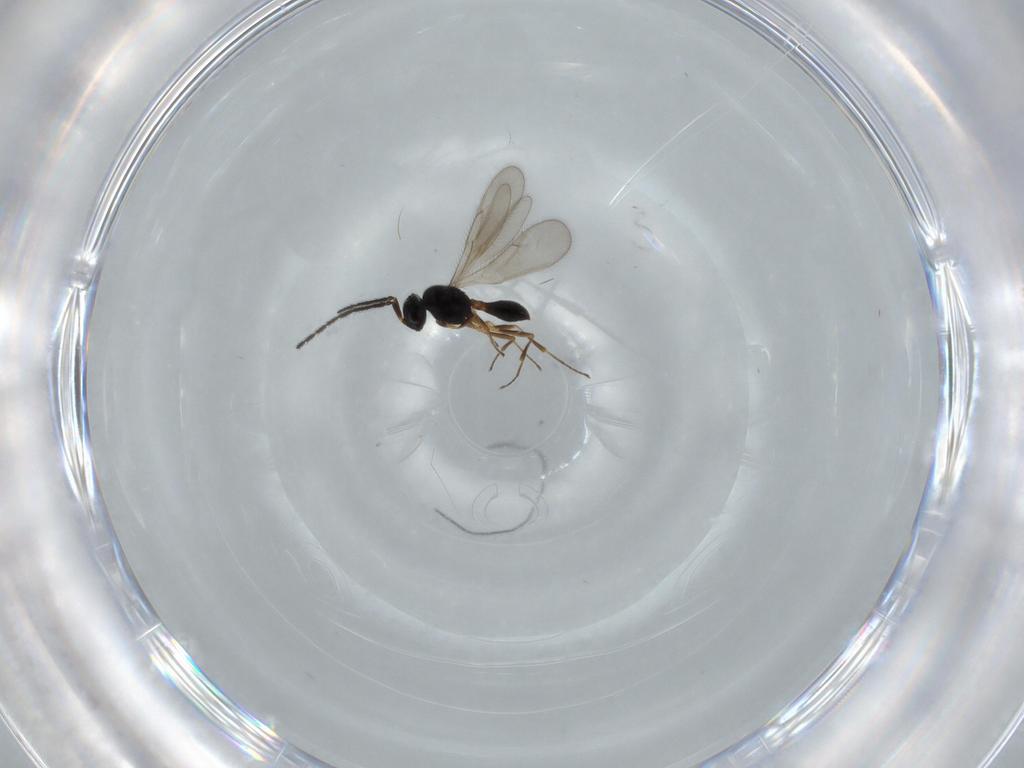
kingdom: Animalia
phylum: Arthropoda
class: Insecta
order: Hymenoptera
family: Scelionidae
